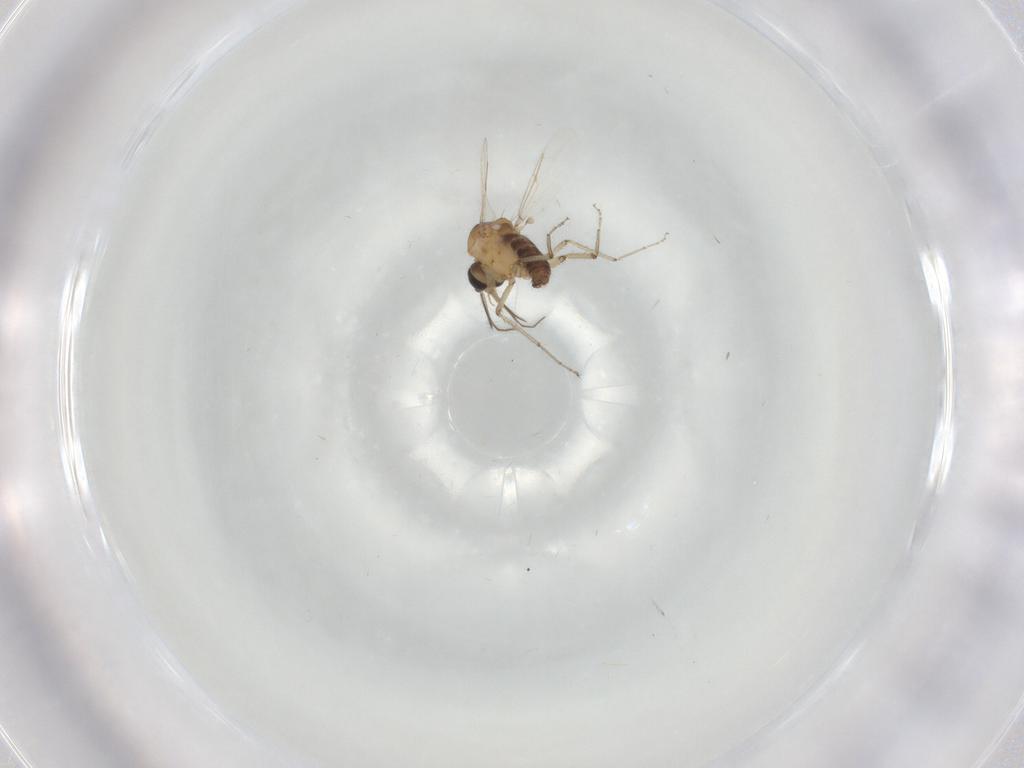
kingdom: Animalia
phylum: Arthropoda
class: Insecta
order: Diptera
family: Ceratopogonidae
